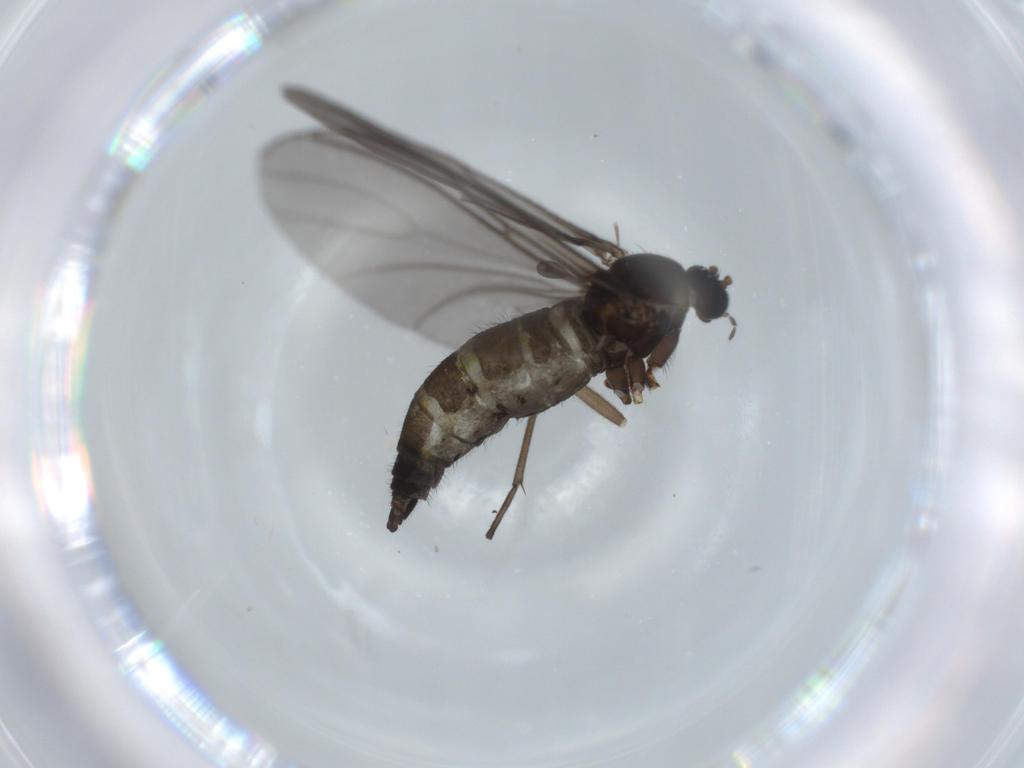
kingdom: Animalia
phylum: Arthropoda
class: Insecta
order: Diptera
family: Sciaridae
